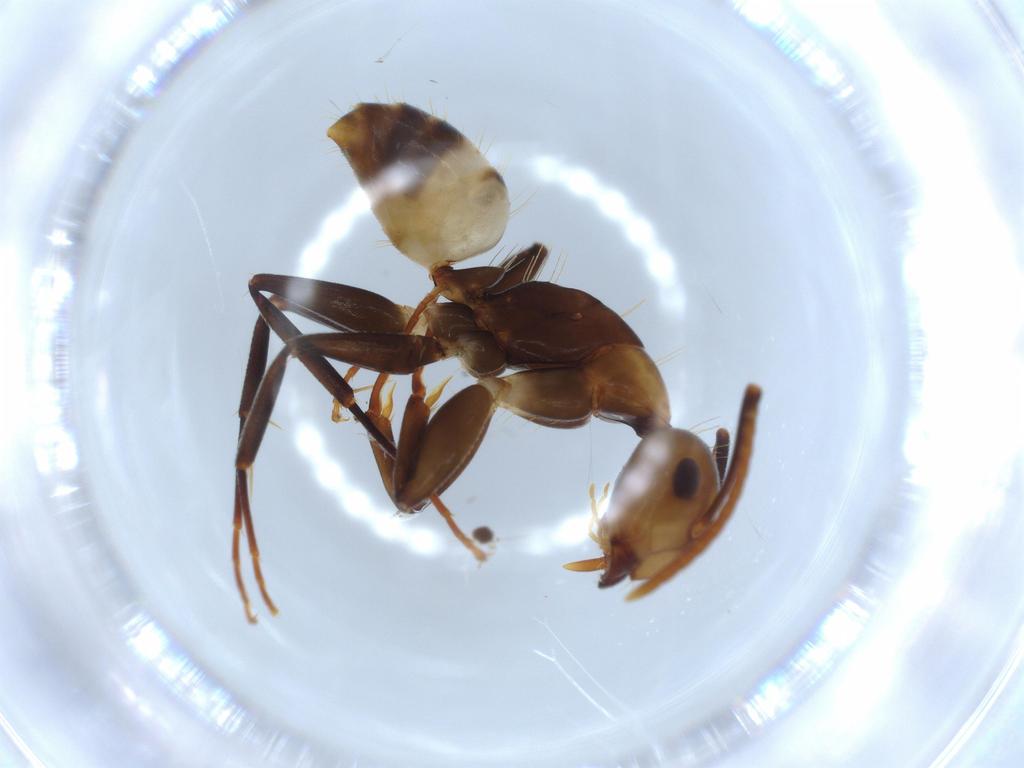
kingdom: Animalia
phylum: Arthropoda
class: Insecta
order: Hymenoptera
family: Formicidae
